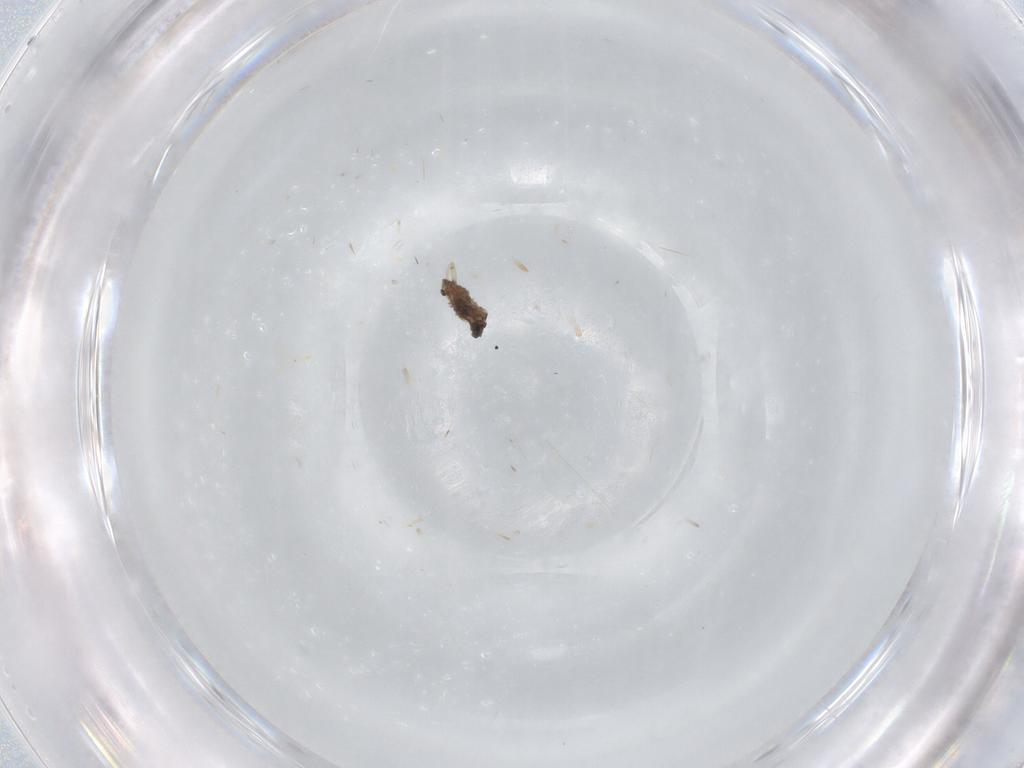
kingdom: Animalia
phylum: Arthropoda
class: Insecta
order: Diptera
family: Cecidomyiidae
